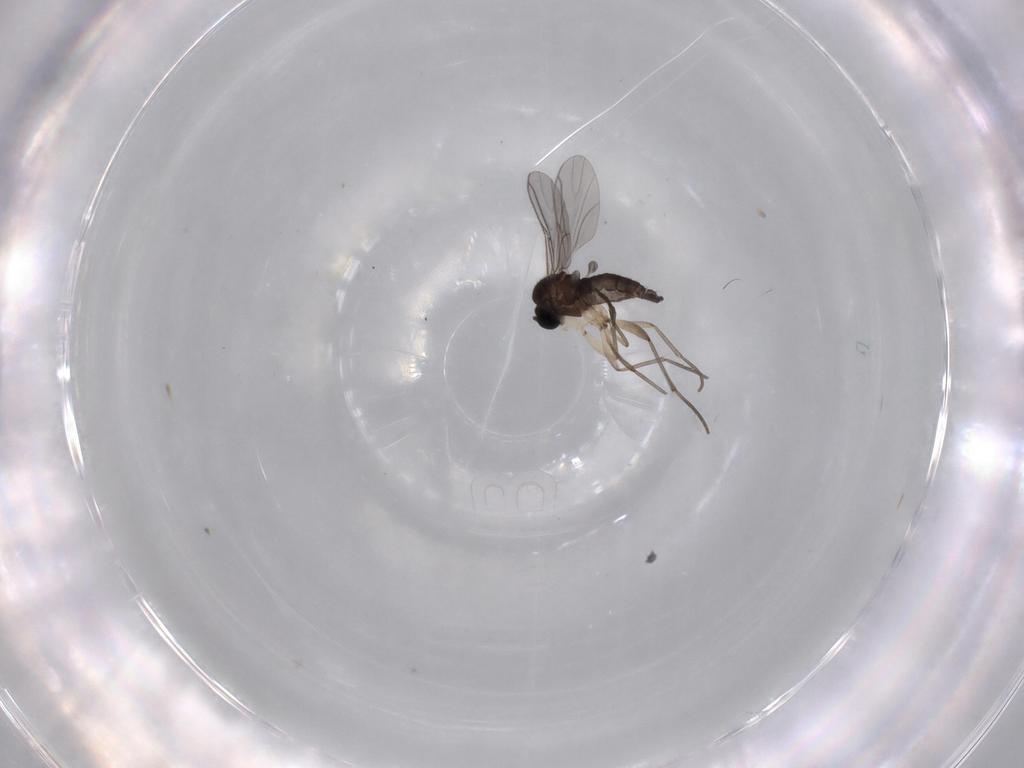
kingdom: Animalia
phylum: Arthropoda
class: Insecta
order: Diptera
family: Sciaridae
